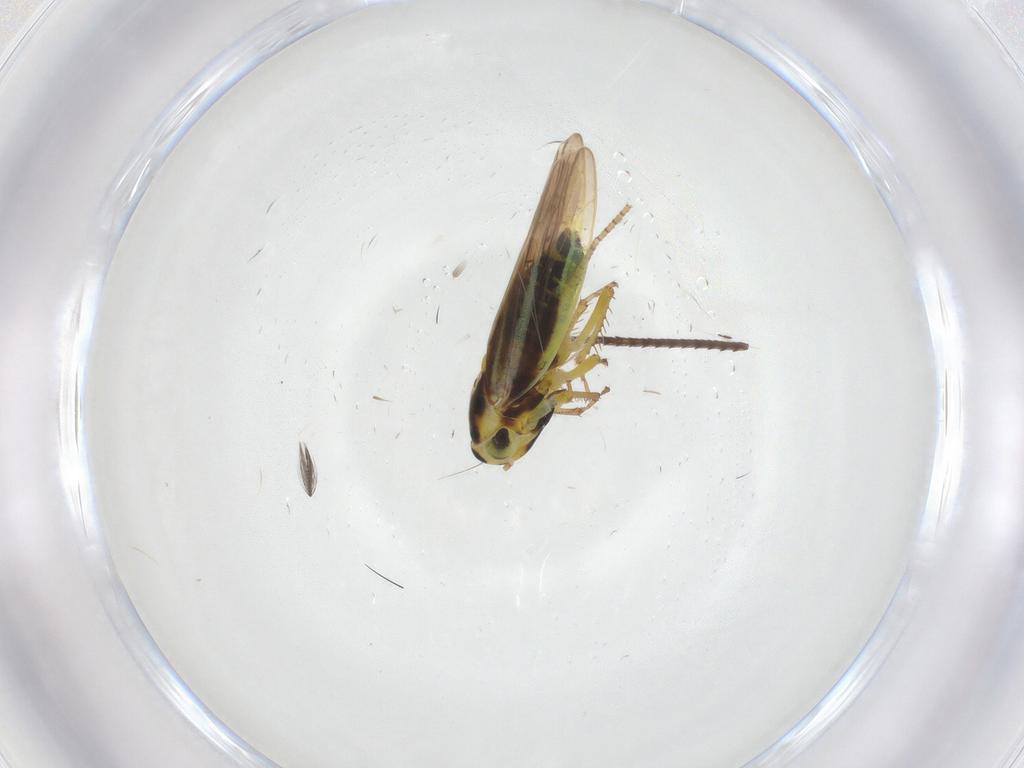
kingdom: Animalia
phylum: Arthropoda
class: Insecta
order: Hemiptera
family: Cicadellidae
